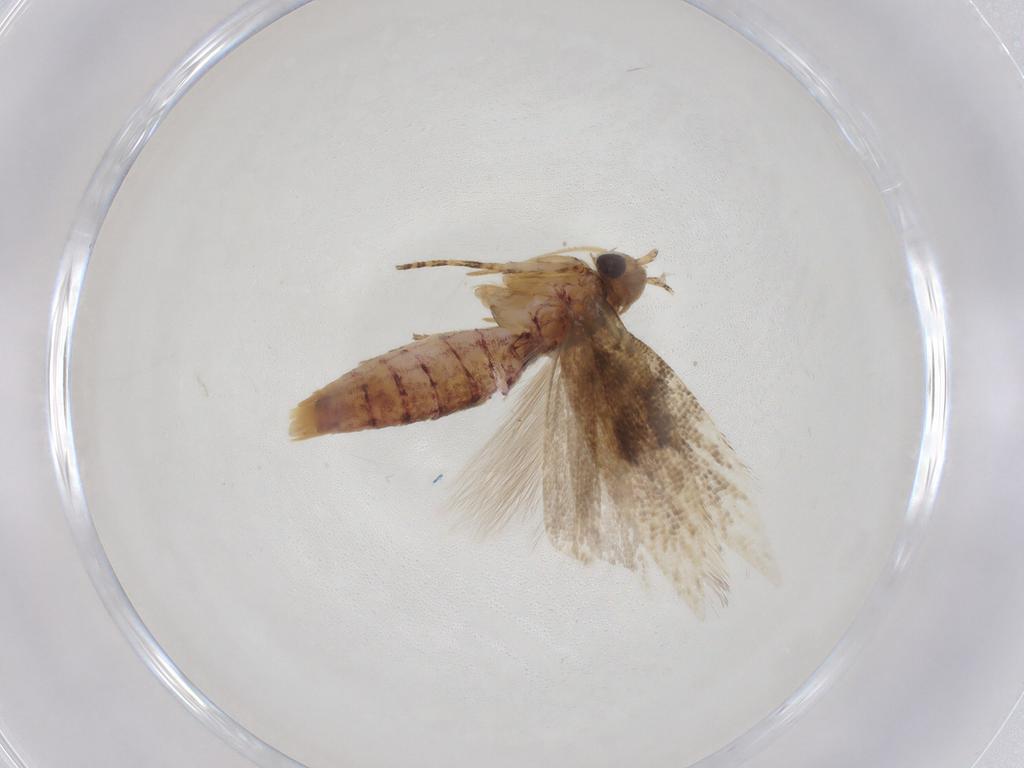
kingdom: Animalia
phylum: Arthropoda
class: Insecta
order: Lepidoptera
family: Gelechiidae
